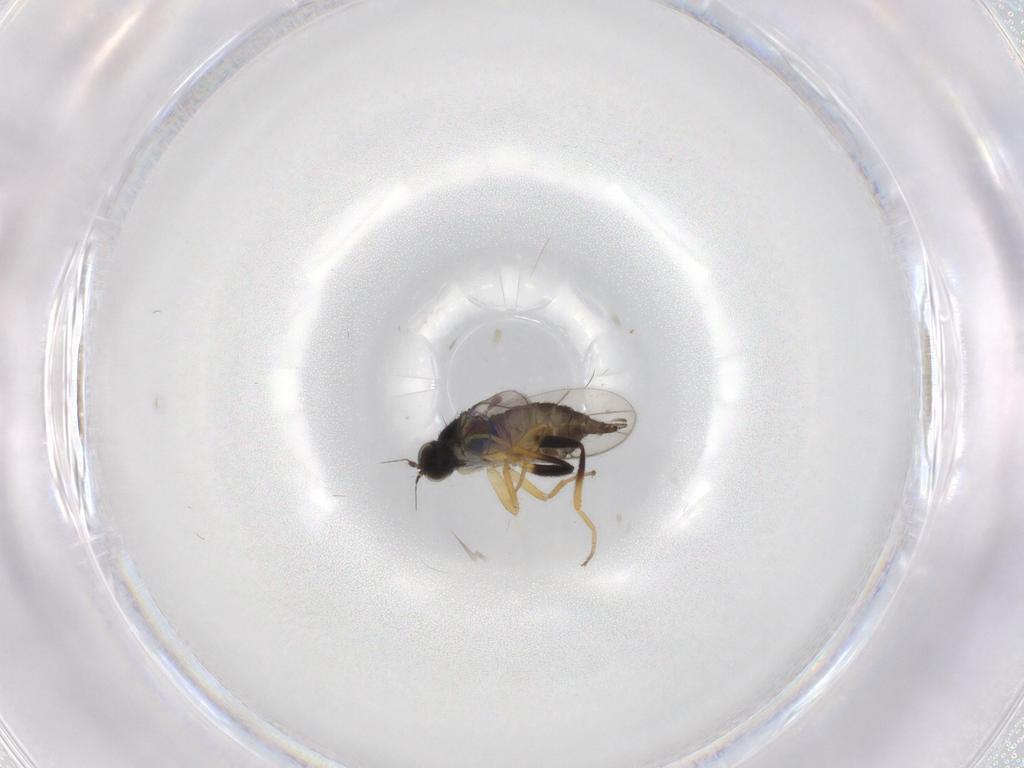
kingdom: Animalia
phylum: Arthropoda
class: Insecta
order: Diptera
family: Hybotidae
